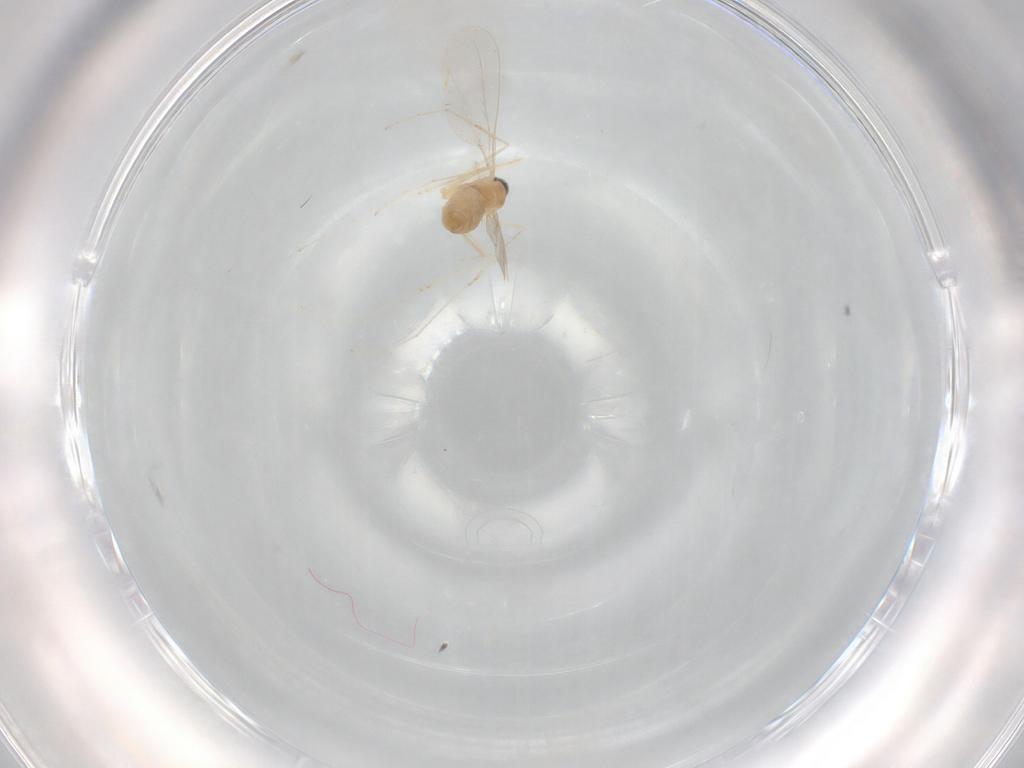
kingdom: Animalia
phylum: Arthropoda
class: Insecta
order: Diptera
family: Cecidomyiidae
